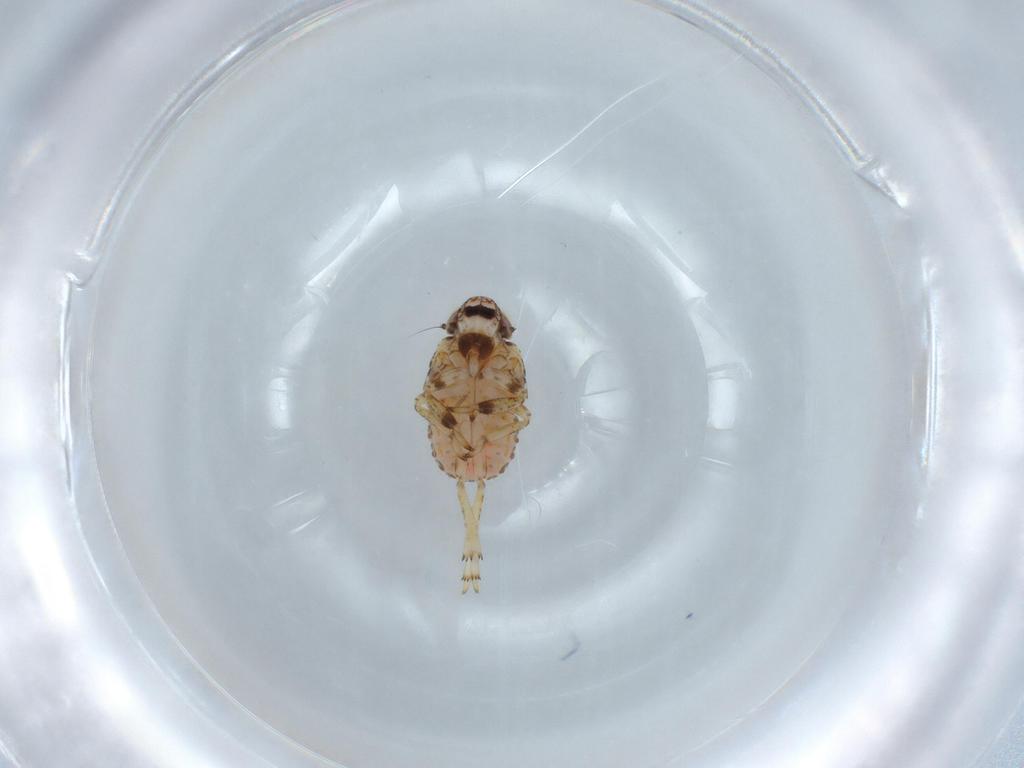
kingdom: Animalia
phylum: Arthropoda
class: Insecta
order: Hemiptera
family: Issidae
